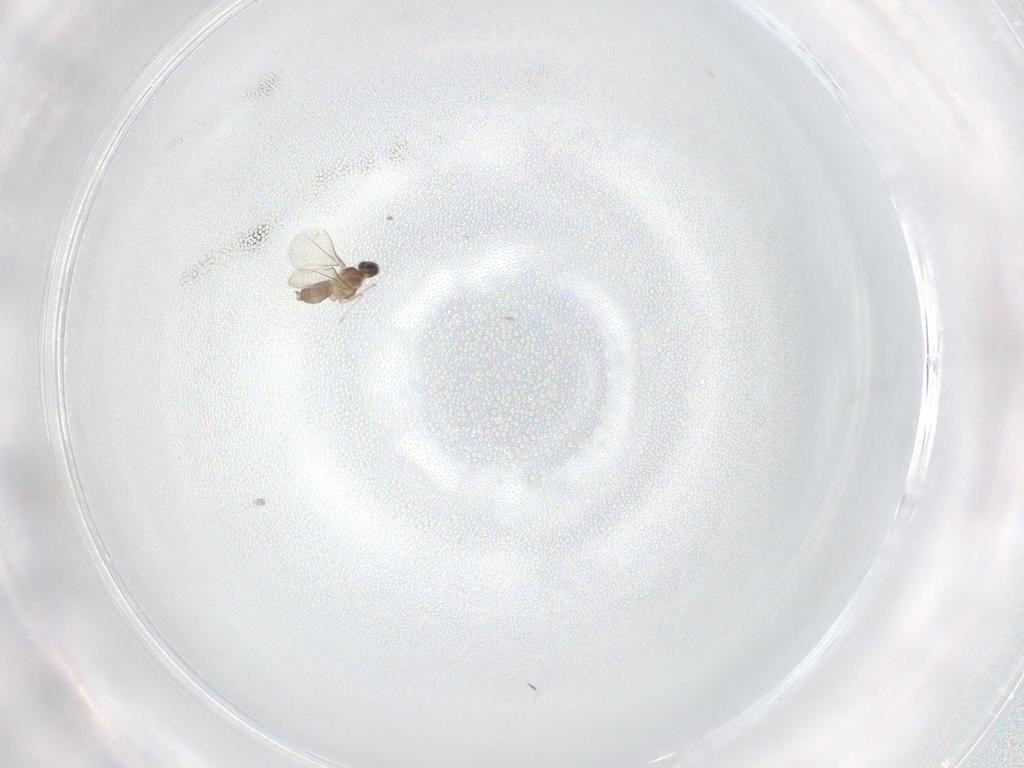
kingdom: Animalia
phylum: Arthropoda
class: Insecta
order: Diptera
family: Cecidomyiidae
